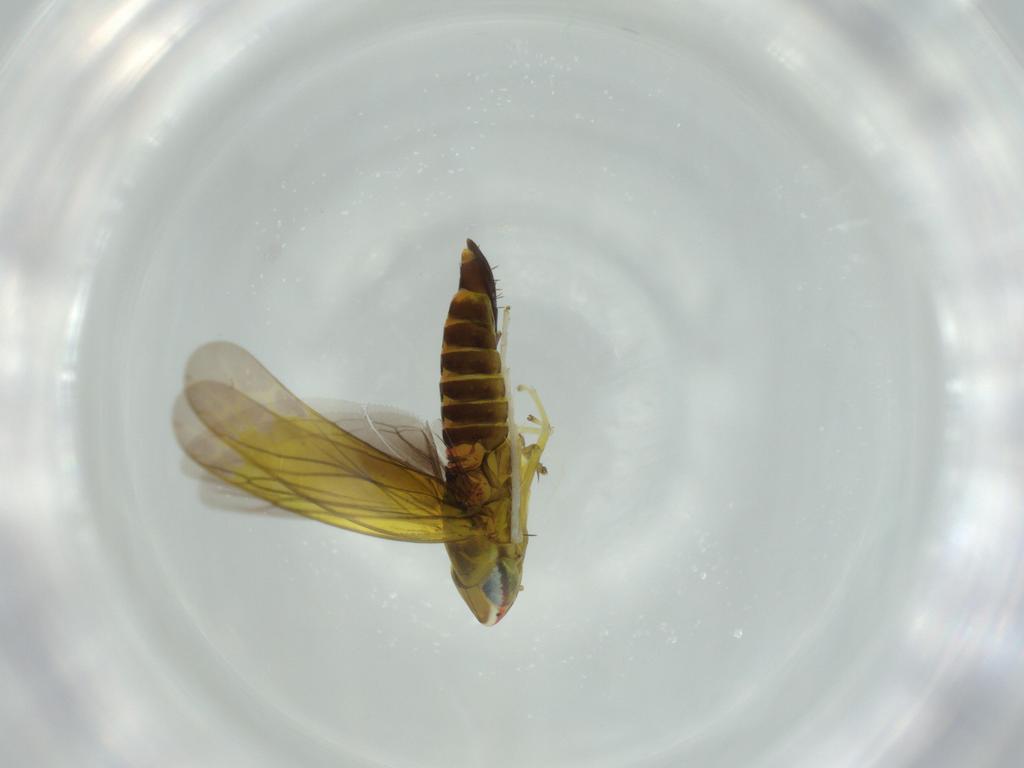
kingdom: Animalia
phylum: Arthropoda
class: Insecta
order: Hemiptera
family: Cicadellidae
